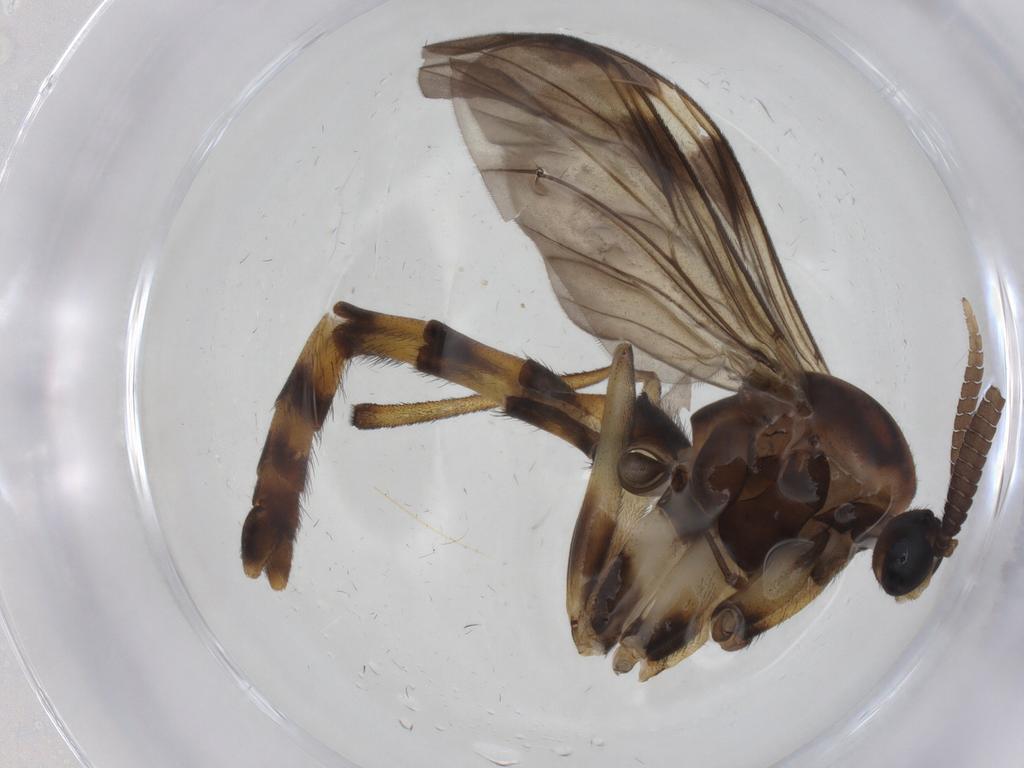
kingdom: Animalia
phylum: Arthropoda
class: Insecta
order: Diptera
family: Keroplatidae
